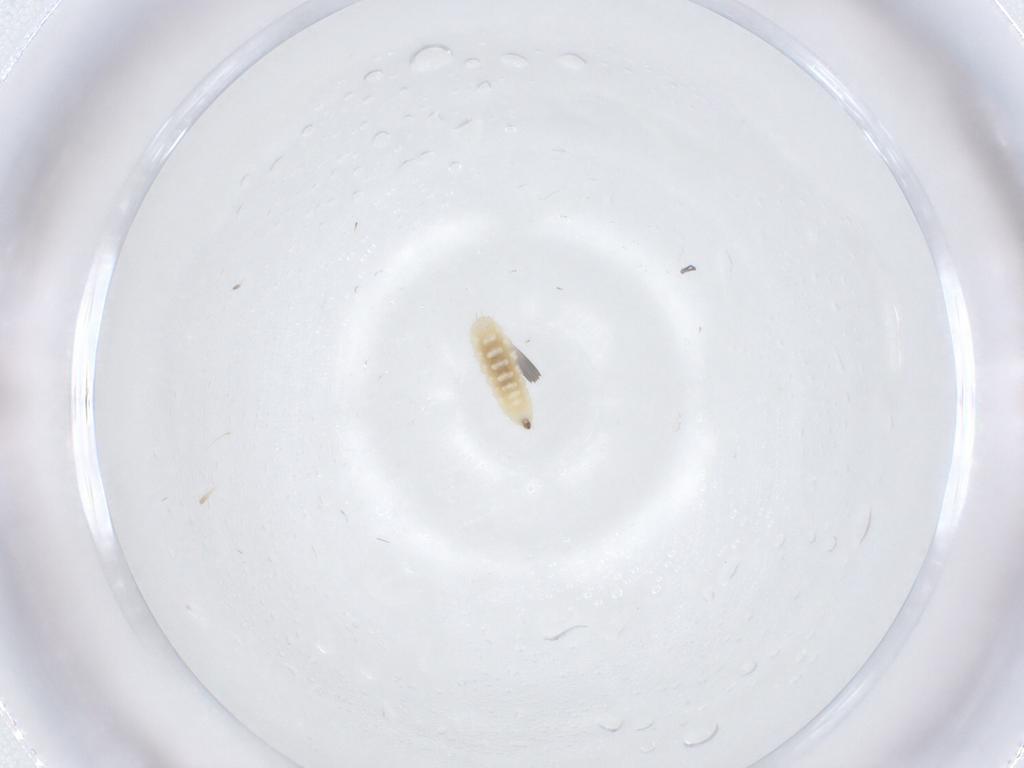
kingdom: Animalia
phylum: Arthropoda
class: Insecta
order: Coleoptera
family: Chrysomelidae
